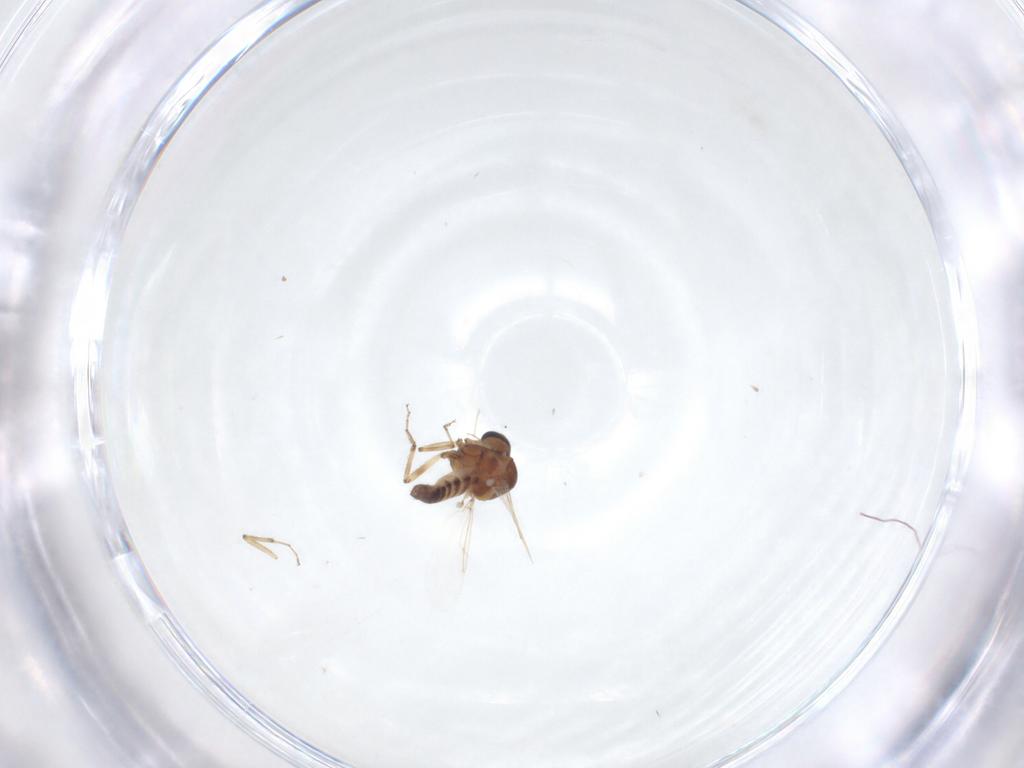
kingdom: Animalia
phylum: Arthropoda
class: Insecta
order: Diptera
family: Ceratopogonidae
